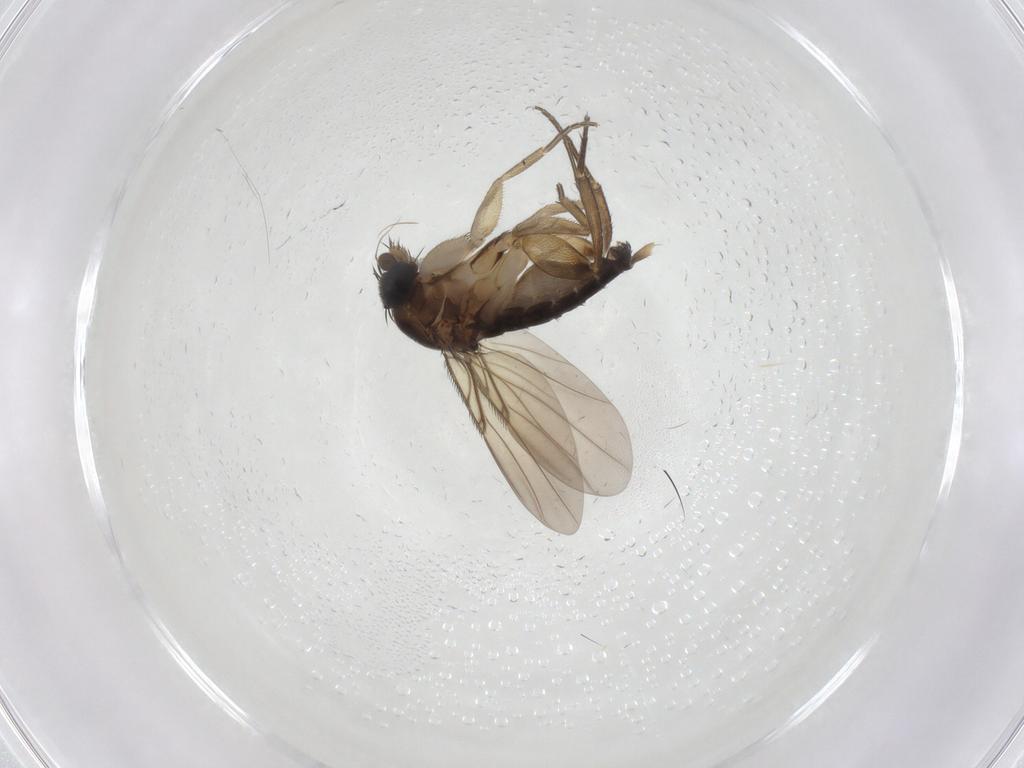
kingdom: Animalia
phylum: Arthropoda
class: Insecta
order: Diptera
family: Phoridae
